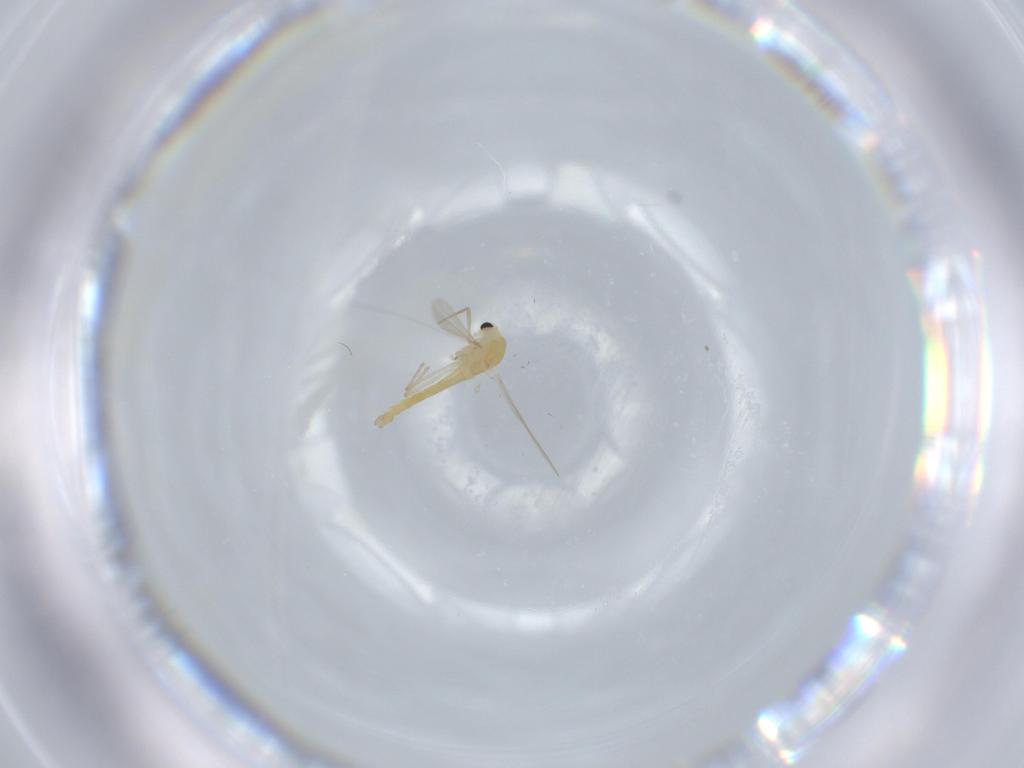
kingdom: Animalia
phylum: Arthropoda
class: Insecta
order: Diptera
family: Chironomidae
